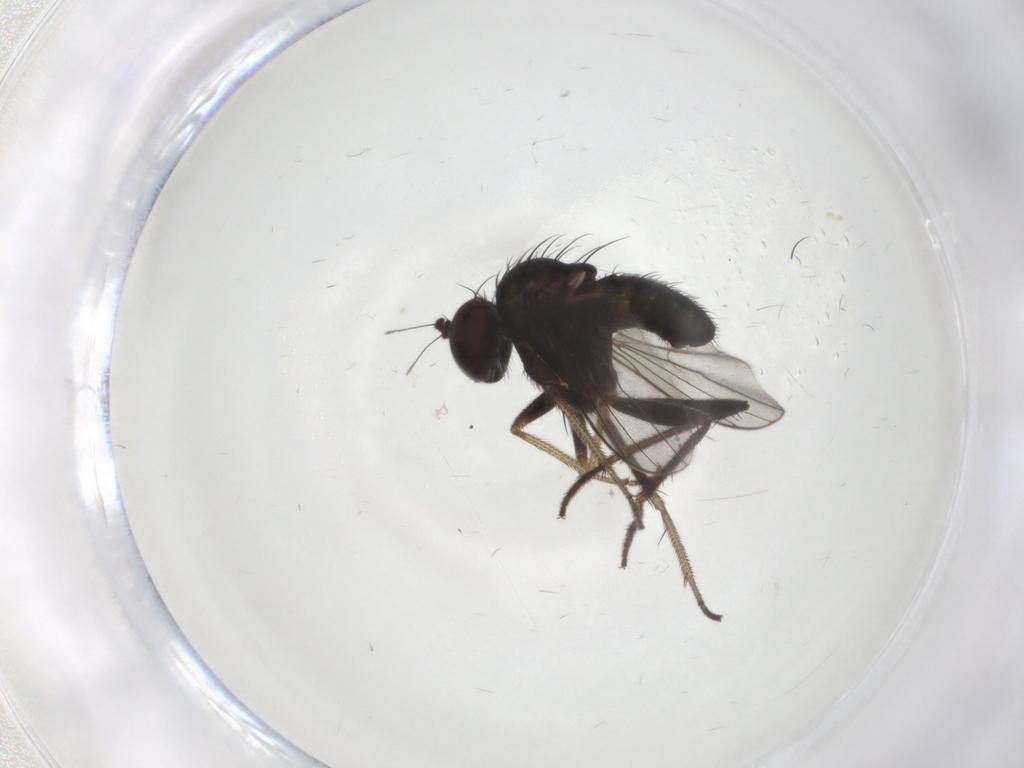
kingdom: Animalia
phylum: Arthropoda
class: Insecta
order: Diptera
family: Dolichopodidae
